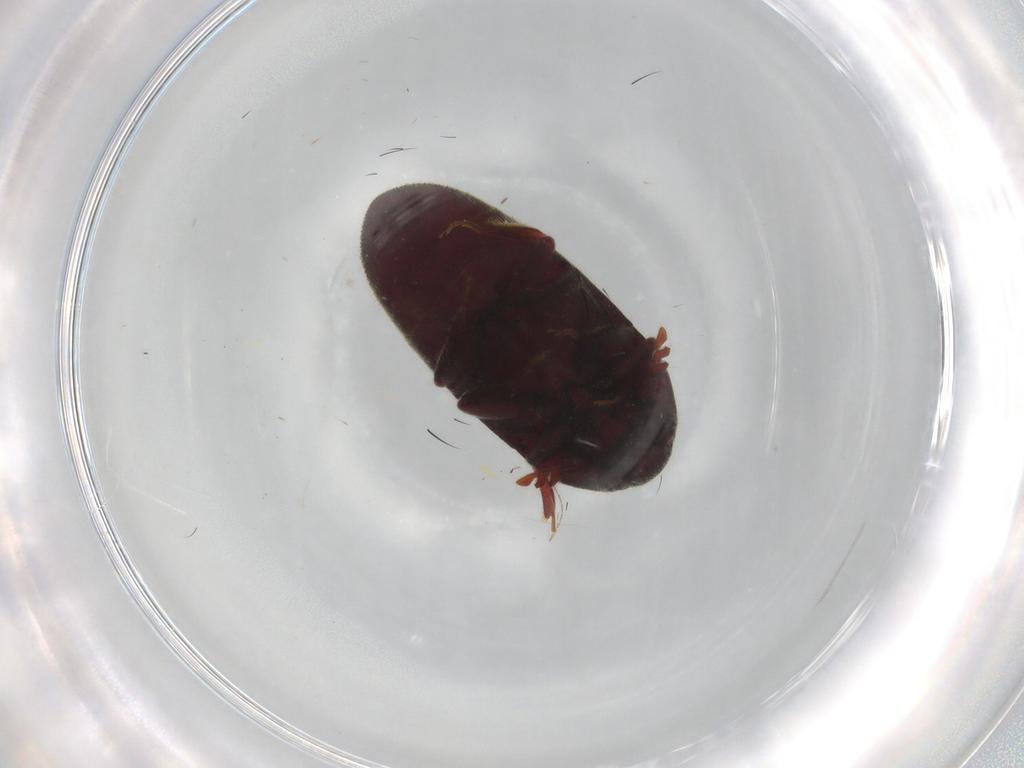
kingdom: Animalia
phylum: Arthropoda
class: Insecta
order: Coleoptera
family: Throscidae
